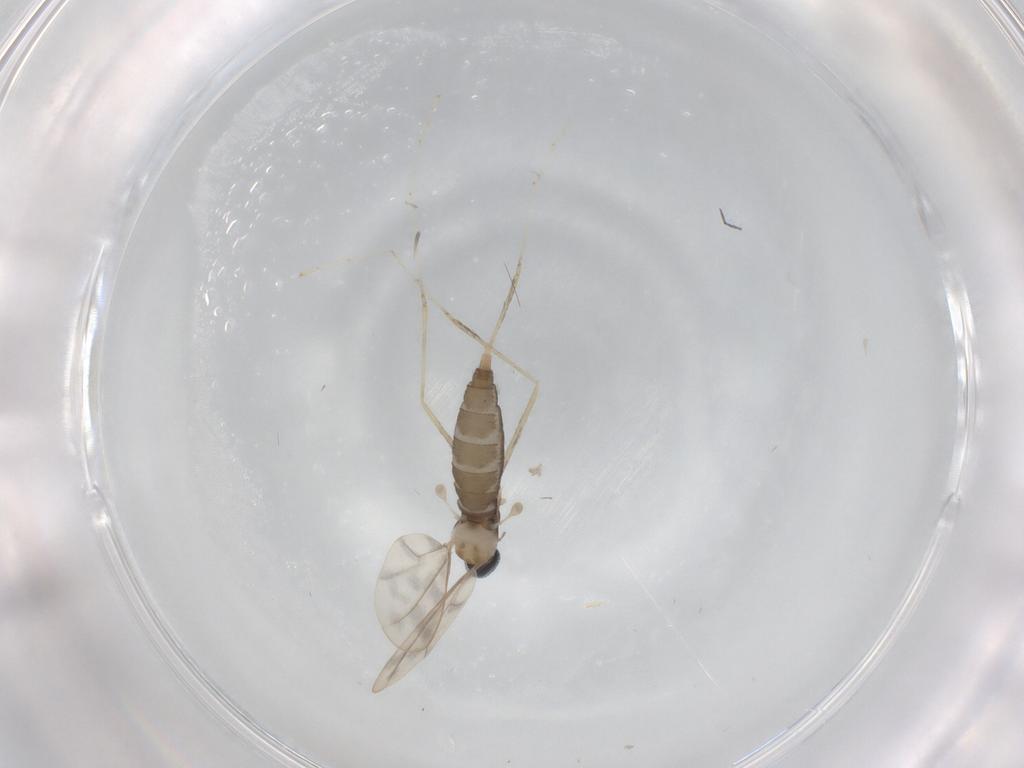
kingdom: Animalia
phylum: Arthropoda
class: Insecta
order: Diptera
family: Cecidomyiidae
